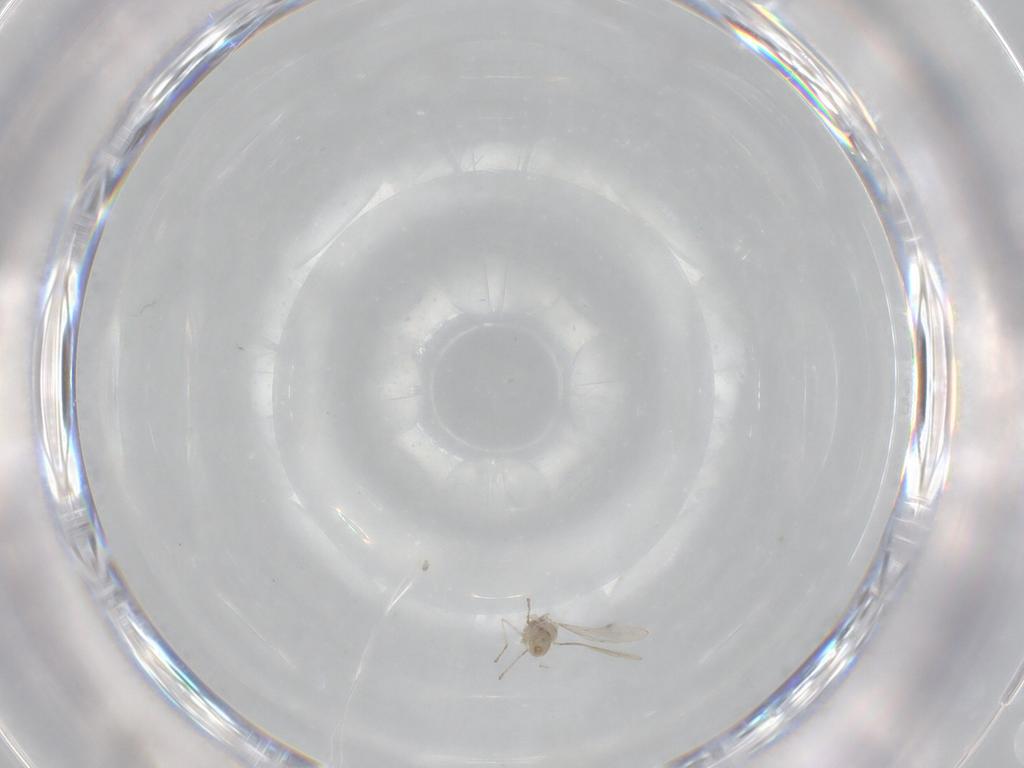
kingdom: Animalia
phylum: Arthropoda
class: Insecta
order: Diptera
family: Cecidomyiidae
